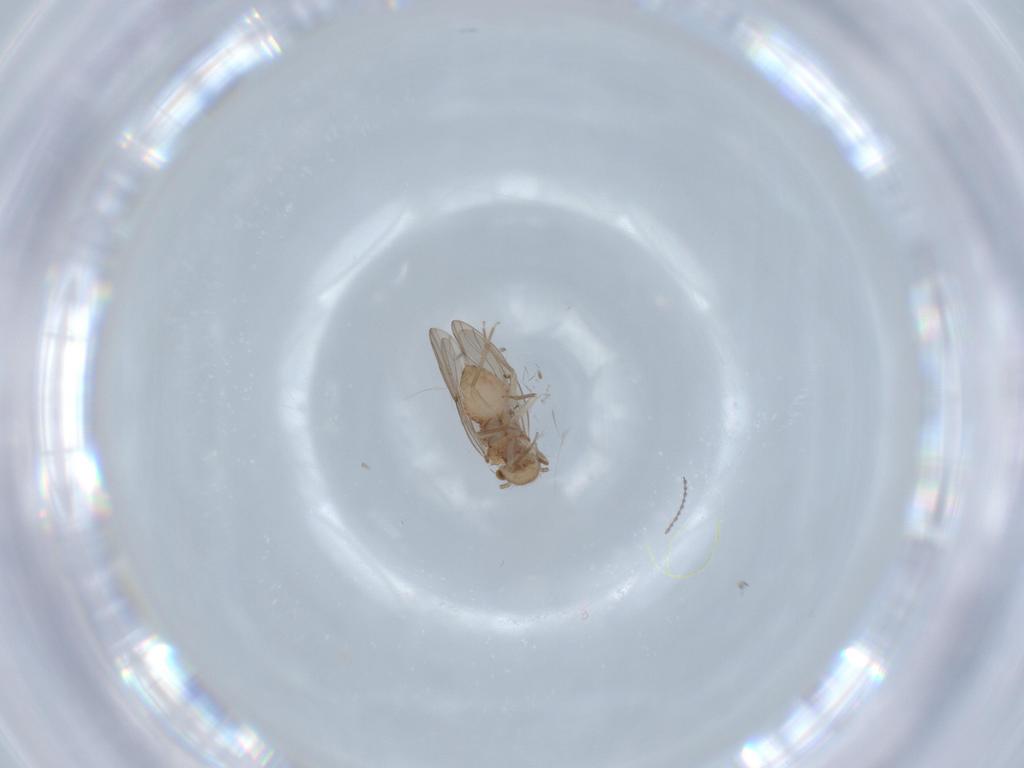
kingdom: Animalia
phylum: Arthropoda
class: Insecta
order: Psocodea
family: Ectopsocidae
